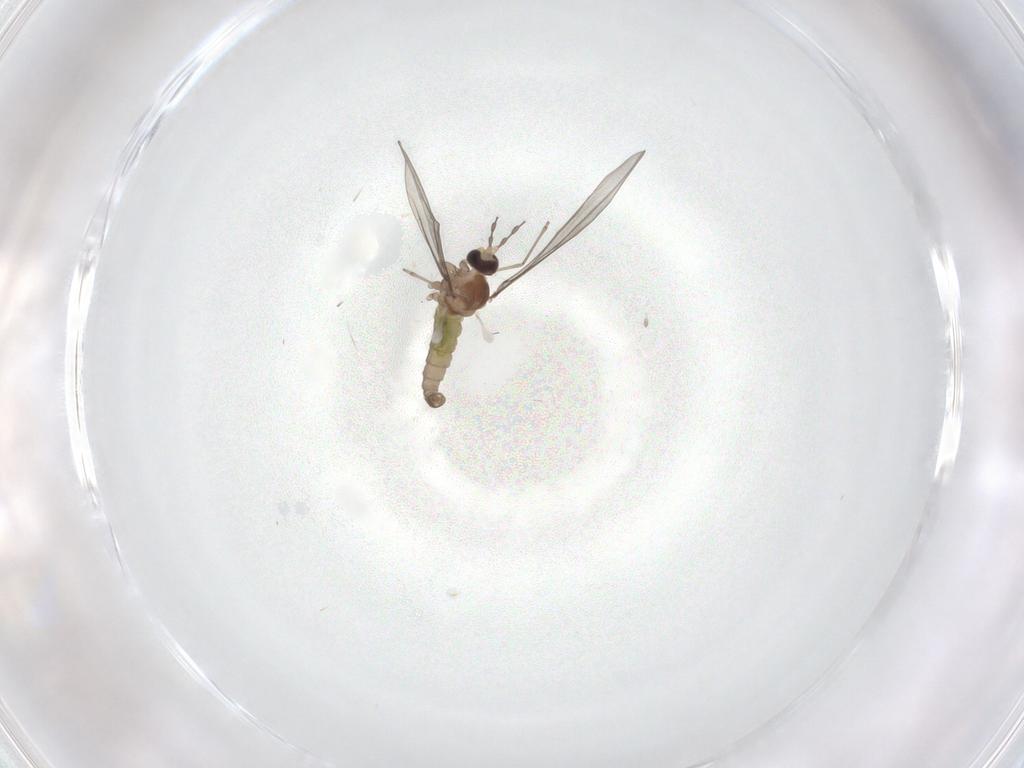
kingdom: Animalia
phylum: Arthropoda
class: Insecta
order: Diptera
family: Cecidomyiidae
